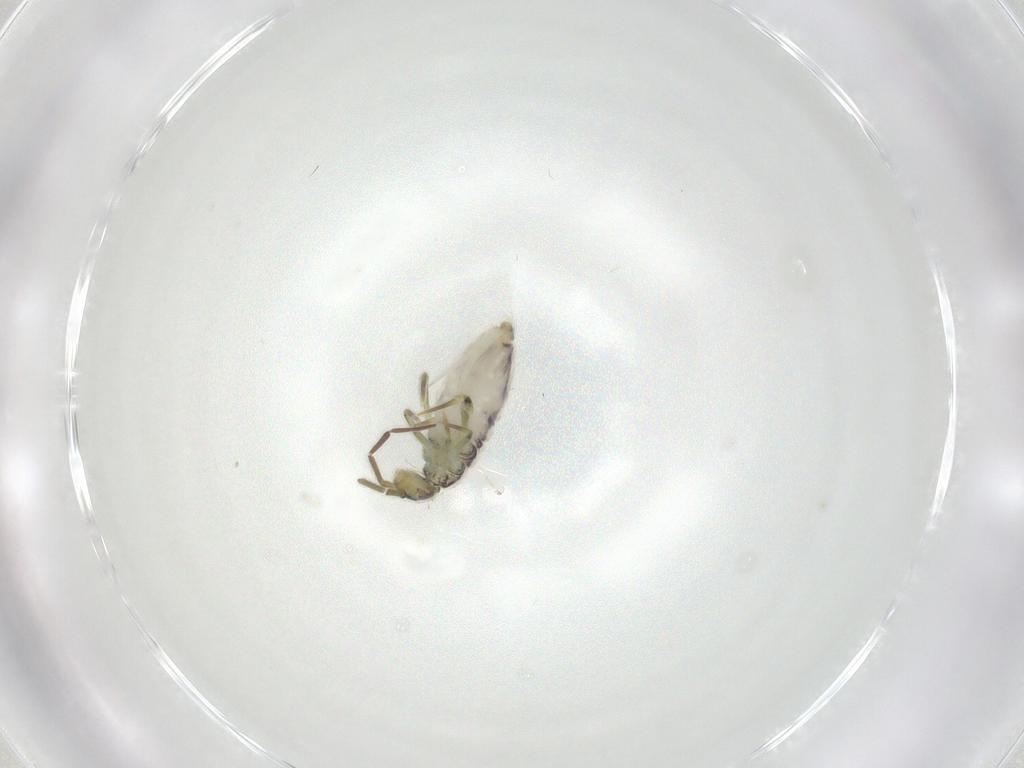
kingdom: Animalia
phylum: Arthropoda
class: Collembola
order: Entomobryomorpha
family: Entomobryidae
